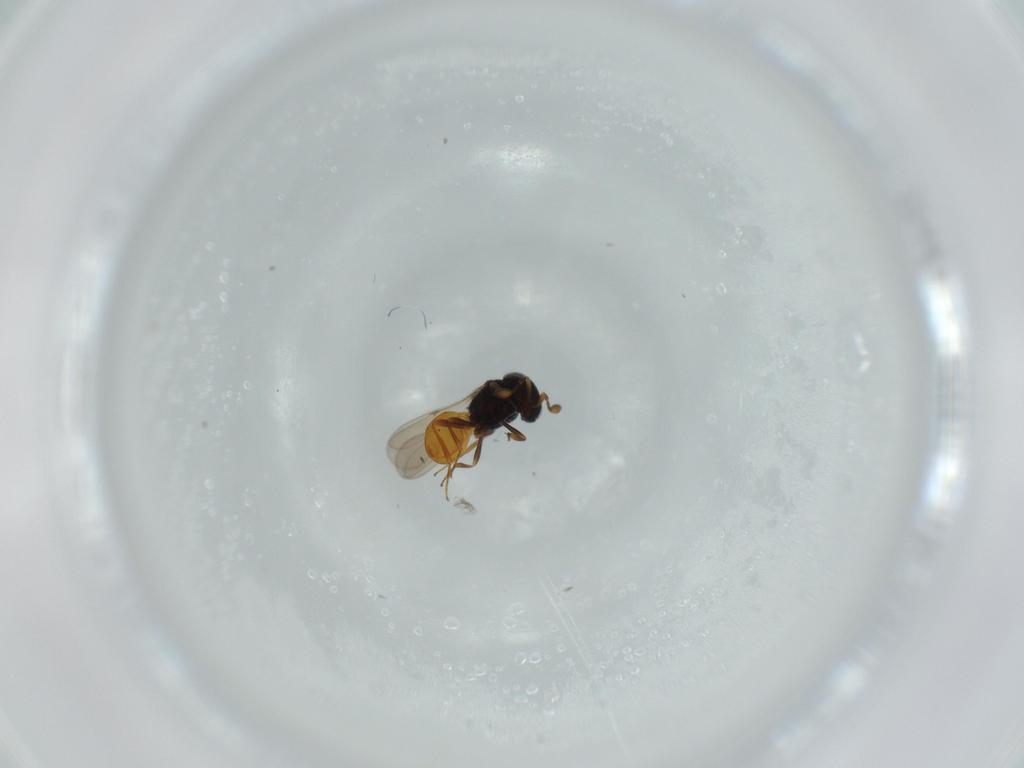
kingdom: Animalia
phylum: Arthropoda
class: Insecta
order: Hymenoptera
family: Scelionidae
